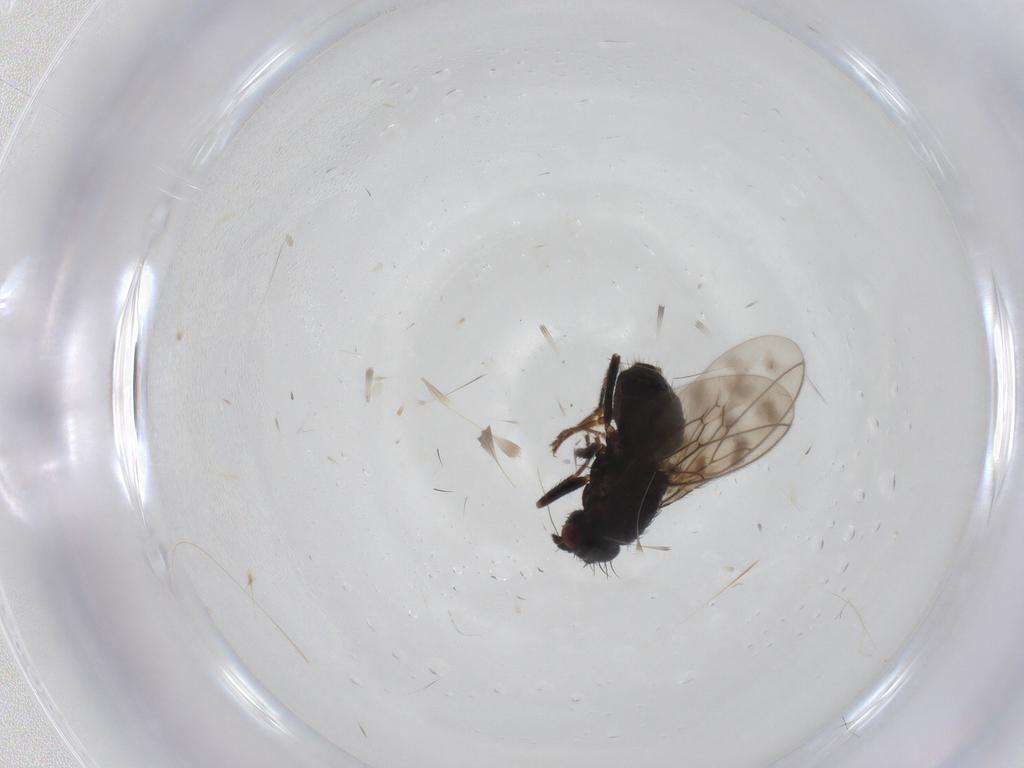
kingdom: Animalia
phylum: Arthropoda
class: Insecta
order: Diptera
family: Sphaeroceridae
